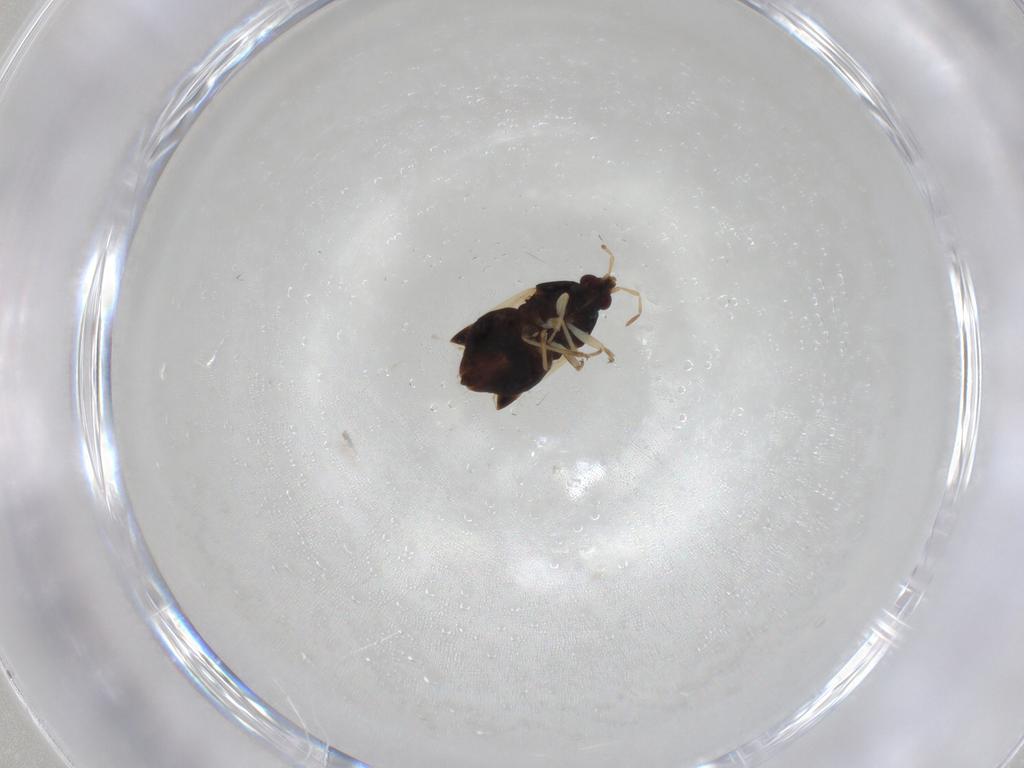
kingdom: Animalia
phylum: Arthropoda
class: Insecta
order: Hemiptera
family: Anthocoridae
